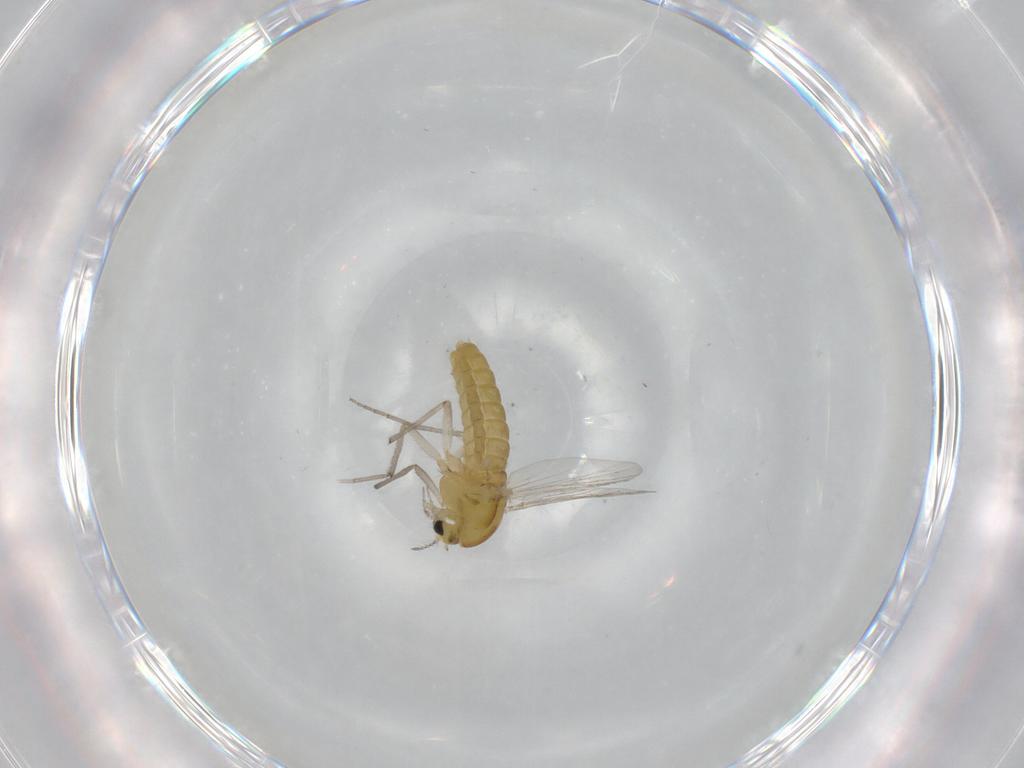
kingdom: Animalia
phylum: Arthropoda
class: Insecta
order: Diptera
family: Chironomidae
